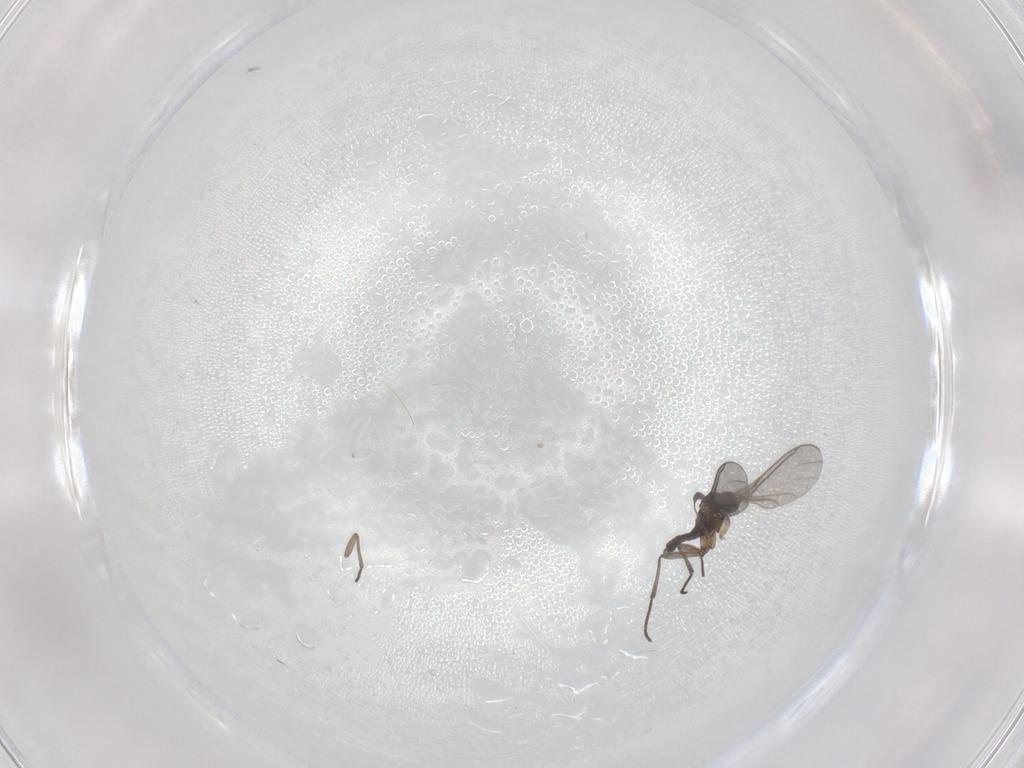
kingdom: Animalia
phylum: Arthropoda
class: Insecta
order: Diptera
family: Sciaridae
